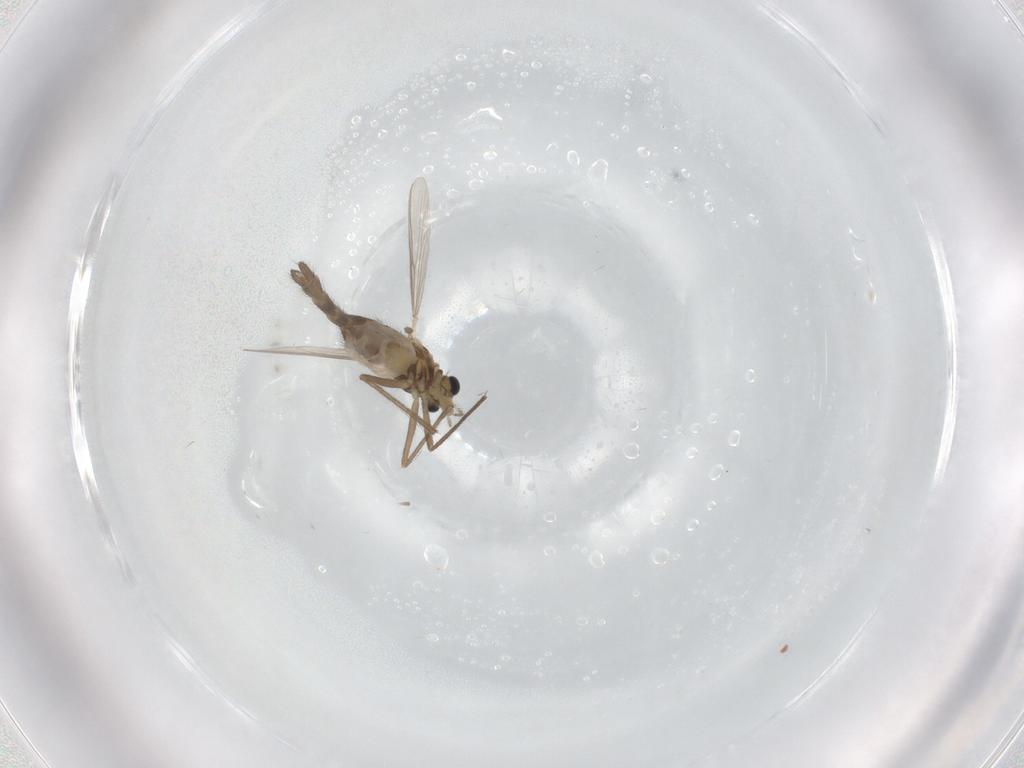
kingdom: Animalia
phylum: Arthropoda
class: Insecta
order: Diptera
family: Chironomidae
